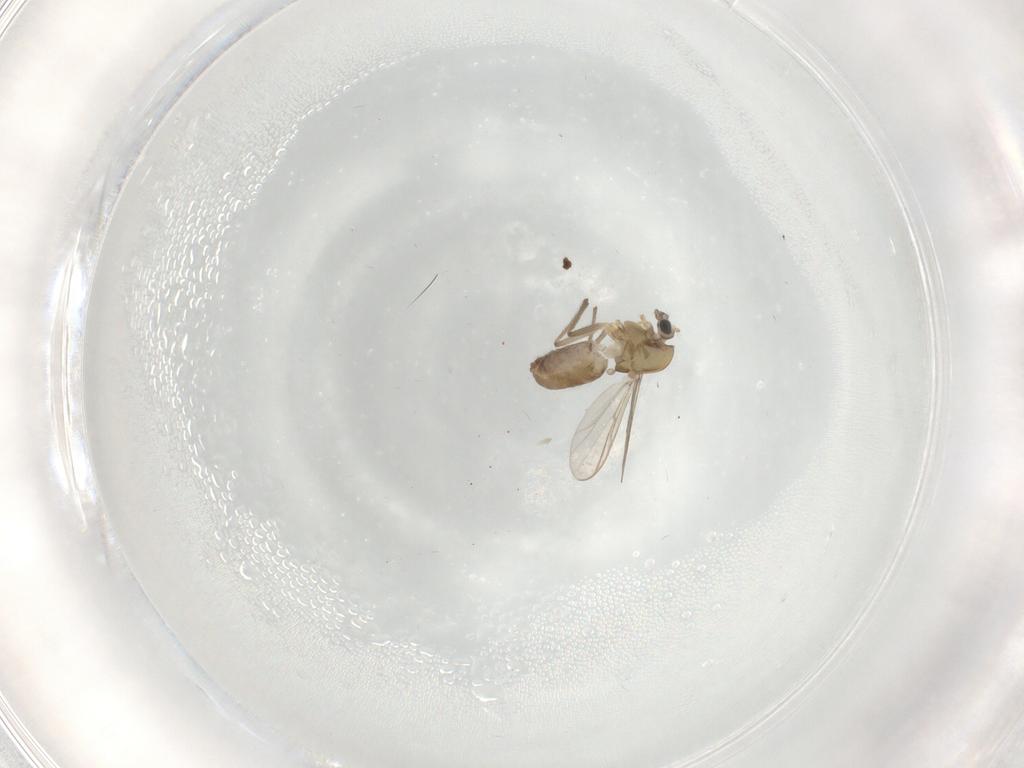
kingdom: Animalia
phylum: Arthropoda
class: Insecta
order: Diptera
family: Chironomidae
